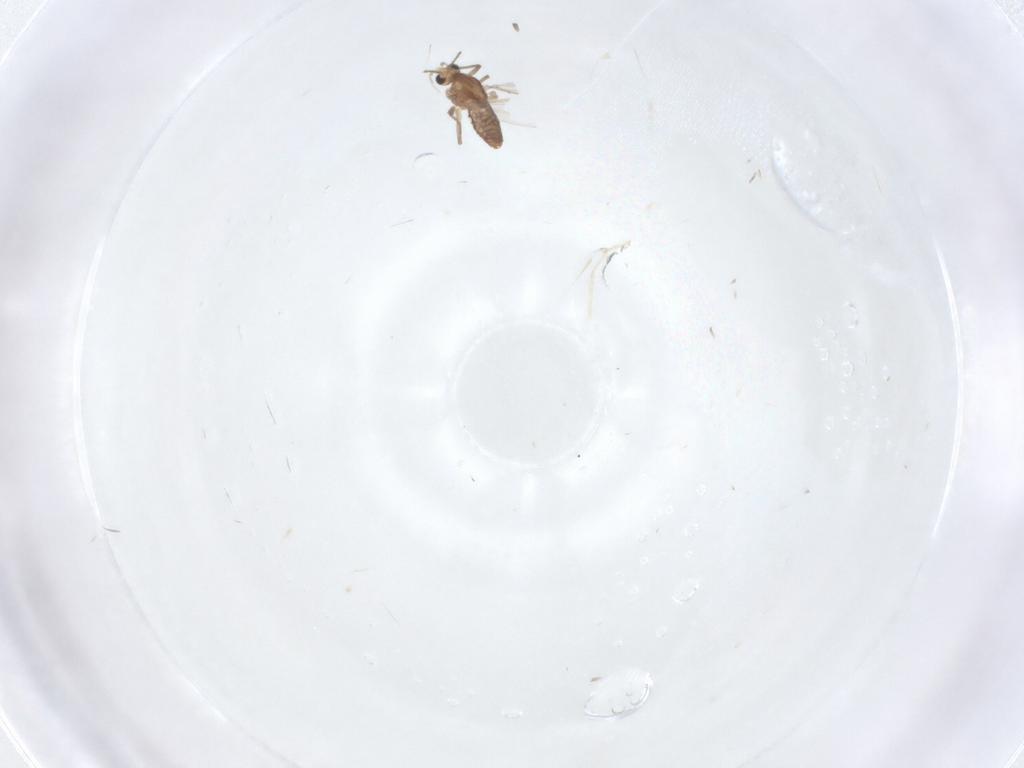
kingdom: Animalia
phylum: Arthropoda
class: Insecta
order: Diptera
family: Chironomidae
